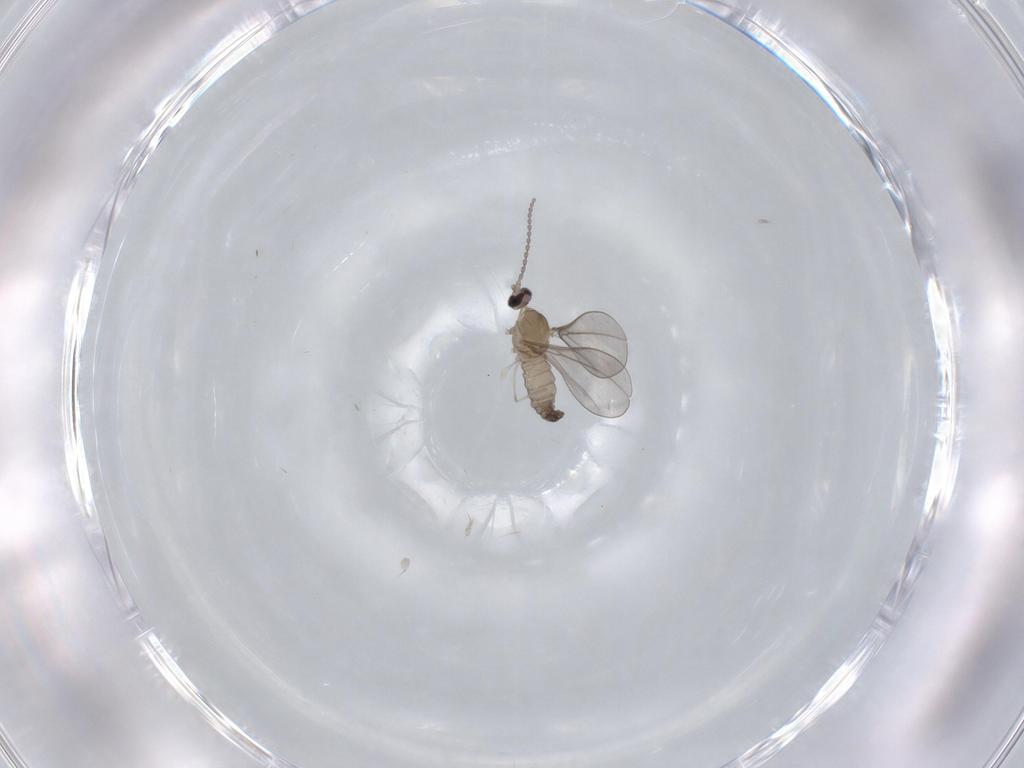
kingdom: Animalia
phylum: Arthropoda
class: Insecta
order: Diptera
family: Cecidomyiidae
